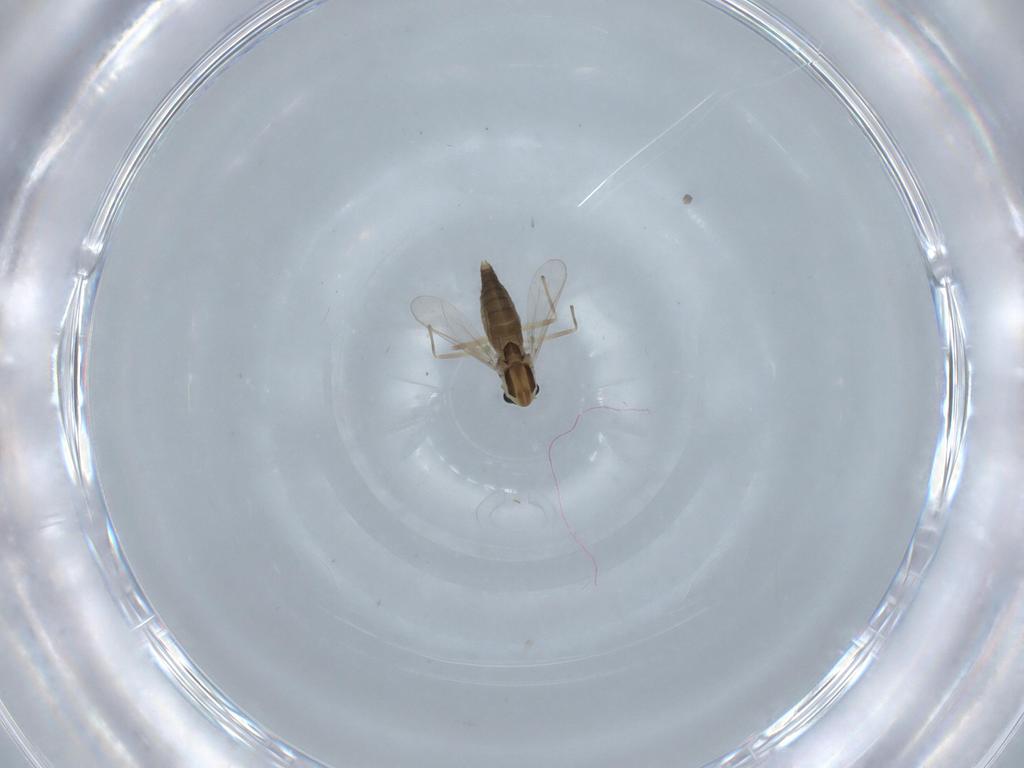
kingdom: Animalia
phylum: Arthropoda
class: Insecta
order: Diptera
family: Chironomidae
